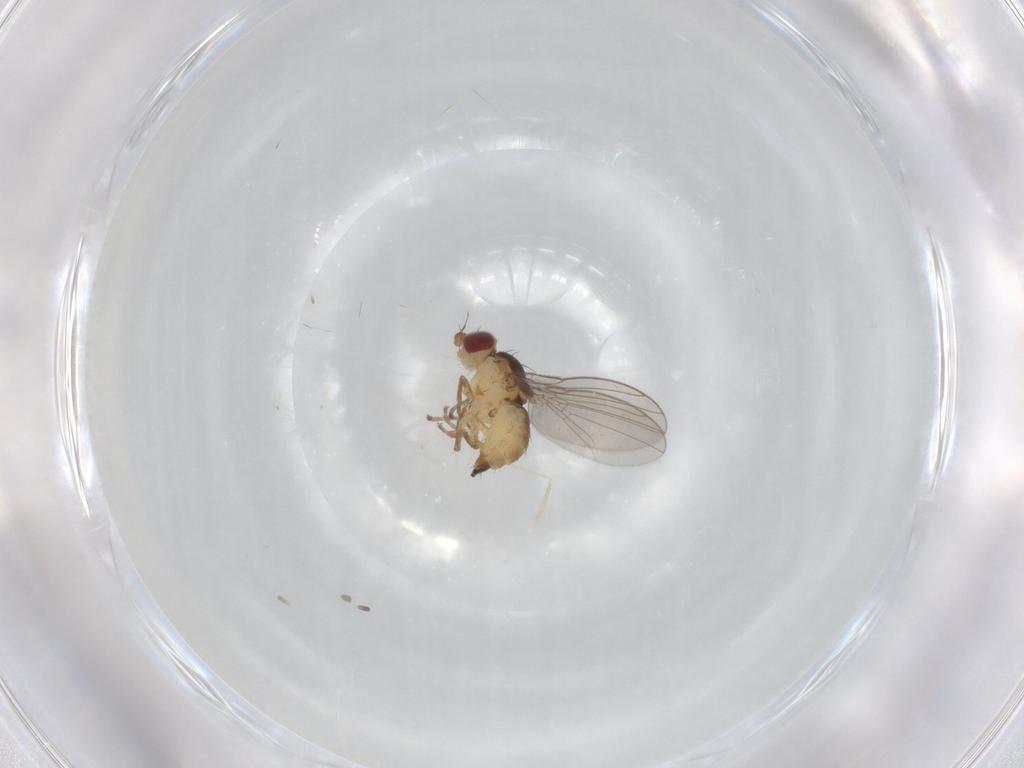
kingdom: Animalia
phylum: Arthropoda
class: Insecta
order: Diptera
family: Agromyzidae
